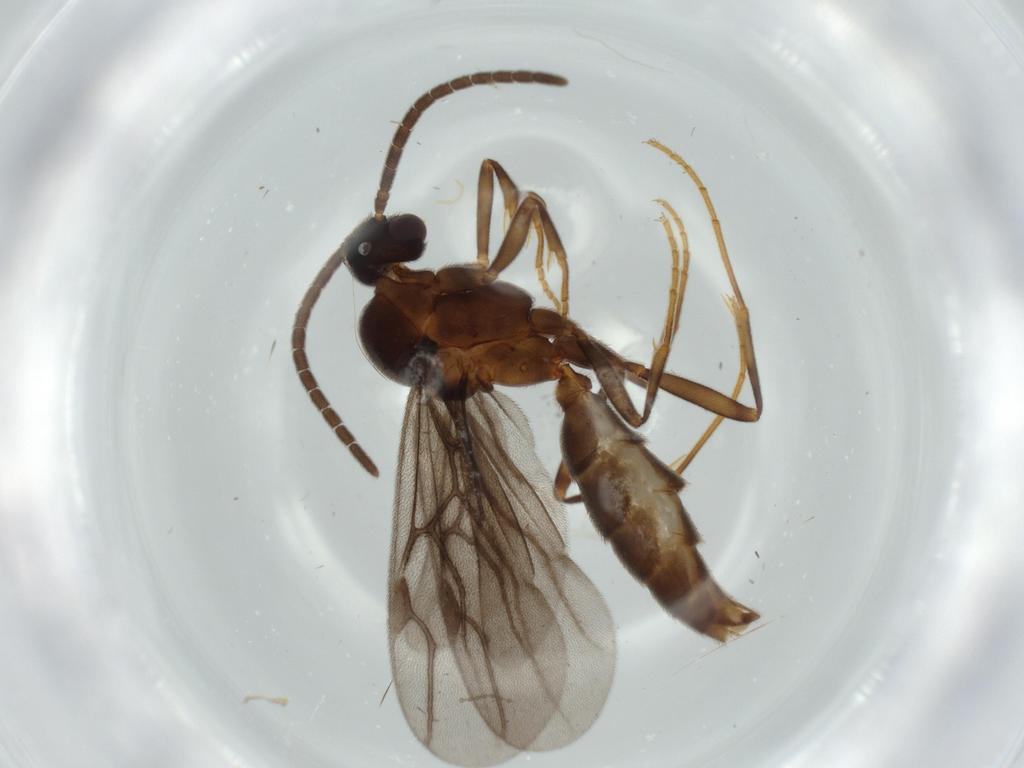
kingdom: Animalia
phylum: Arthropoda
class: Insecta
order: Hymenoptera
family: Formicidae
